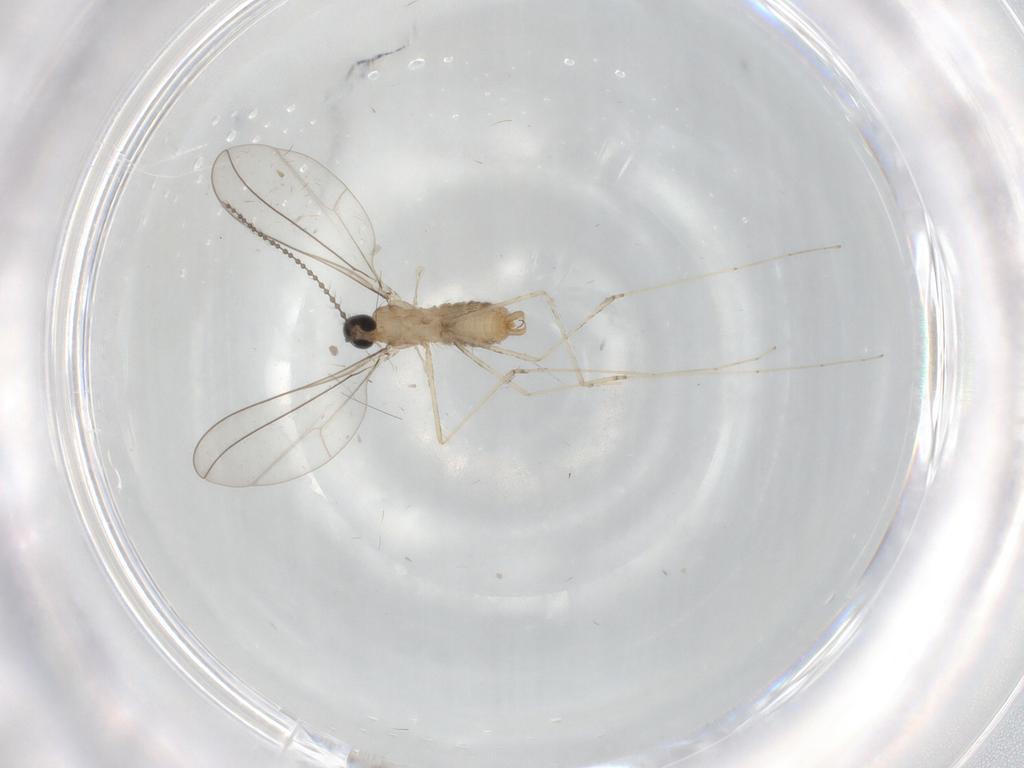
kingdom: Animalia
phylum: Arthropoda
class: Insecta
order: Diptera
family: Cecidomyiidae
